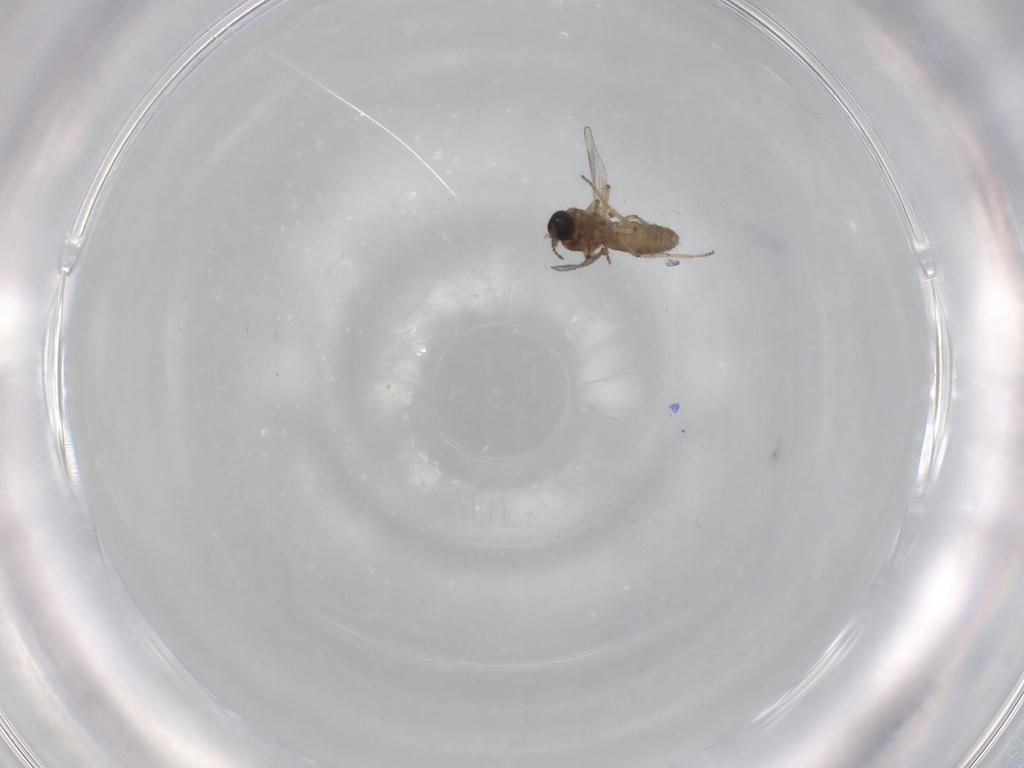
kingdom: Animalia
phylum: Arthropoda
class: Insecta
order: Diptera
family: Ceratopogonidae
